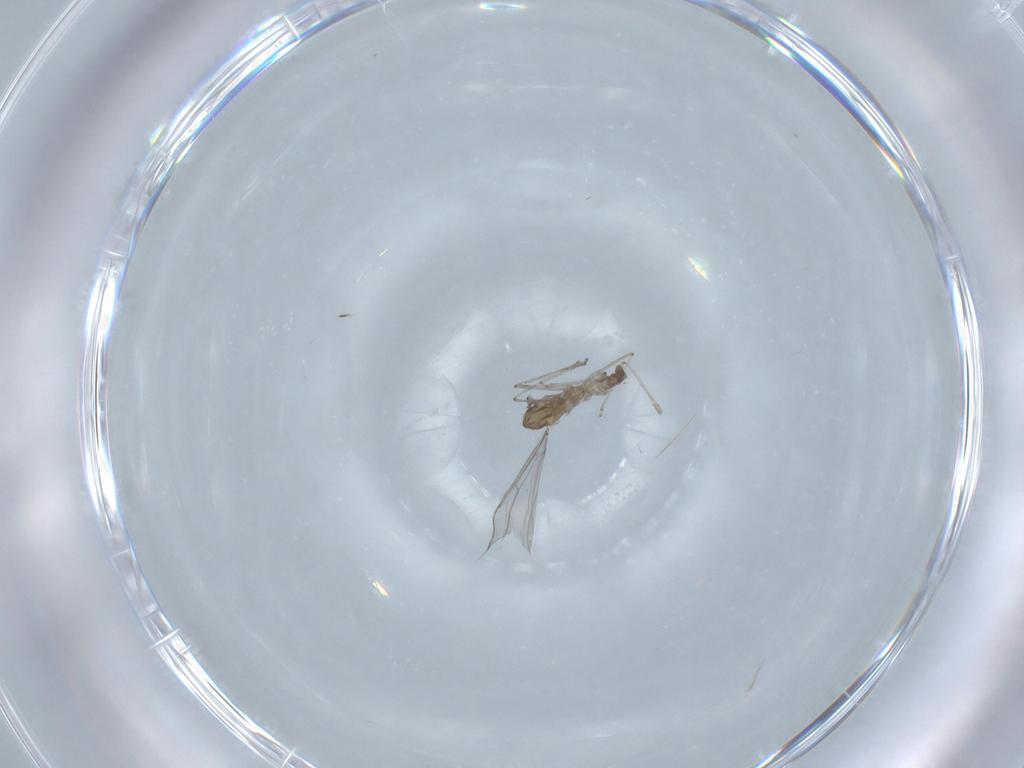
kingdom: Animalia
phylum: Arthropoda
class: Insecta
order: Diptera
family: Cecidomyiidae
